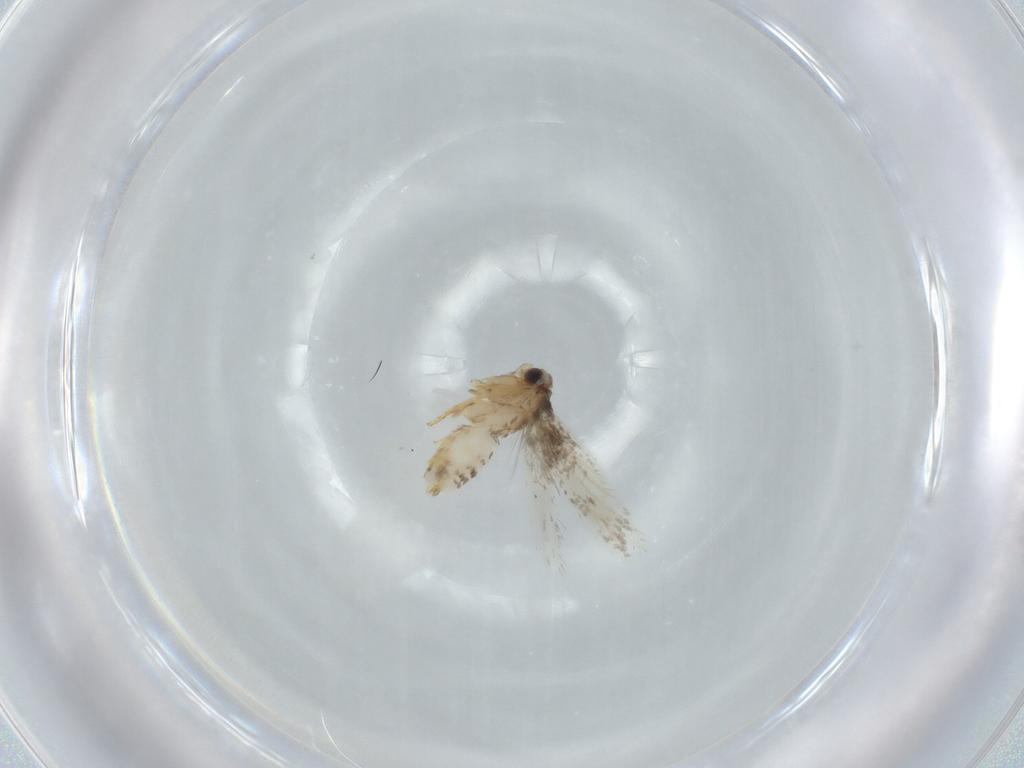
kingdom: Animalia
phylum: Arthropoda
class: Insecta
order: Lepidoptera
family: Nepticulidae
